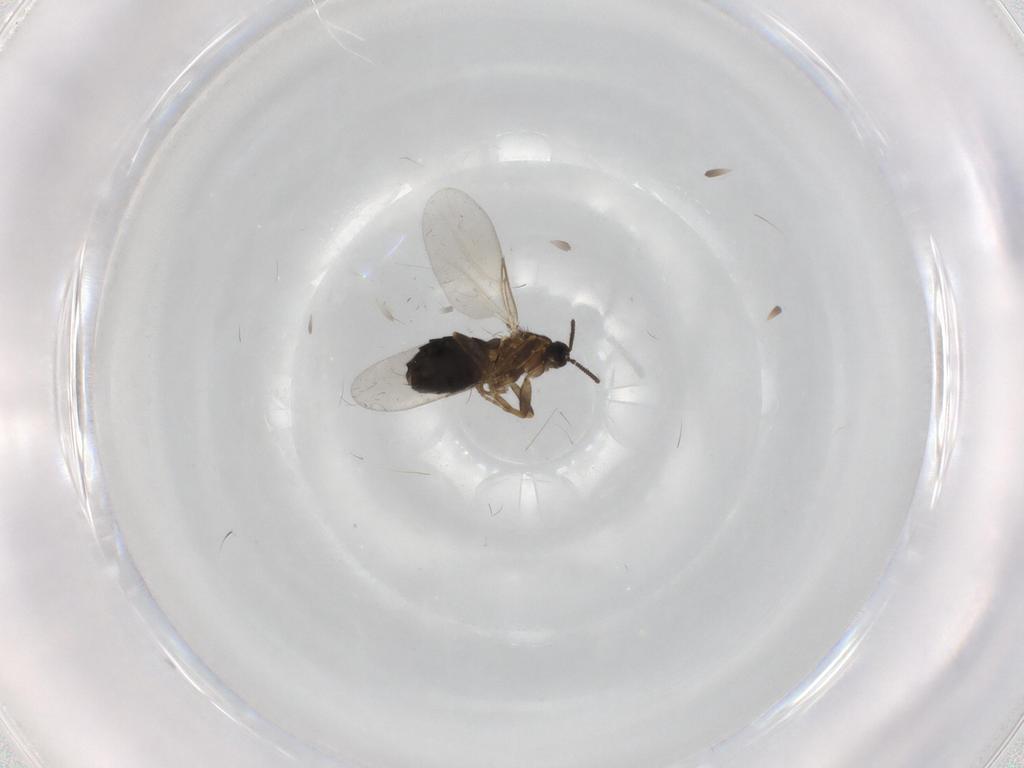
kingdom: Animalia
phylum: Arthropoda
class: Insecta
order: Diptera
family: Scatopsidae
